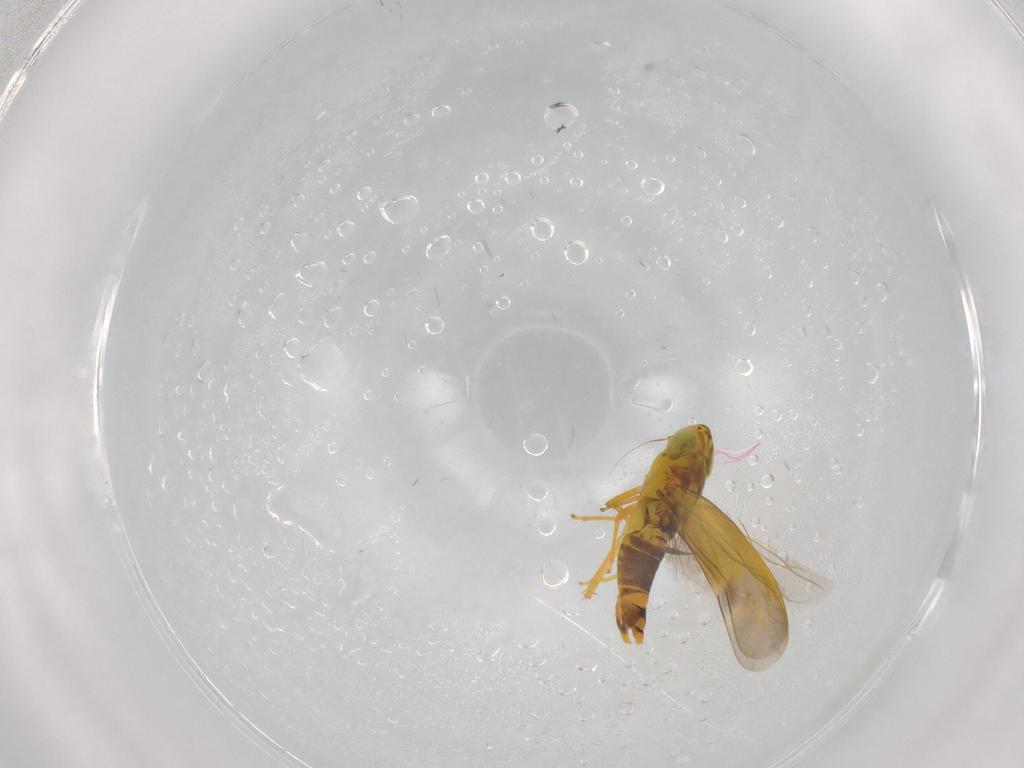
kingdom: Animalia
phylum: Arthropoda
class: Insecta
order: Hemiptera
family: Cicadellidae
